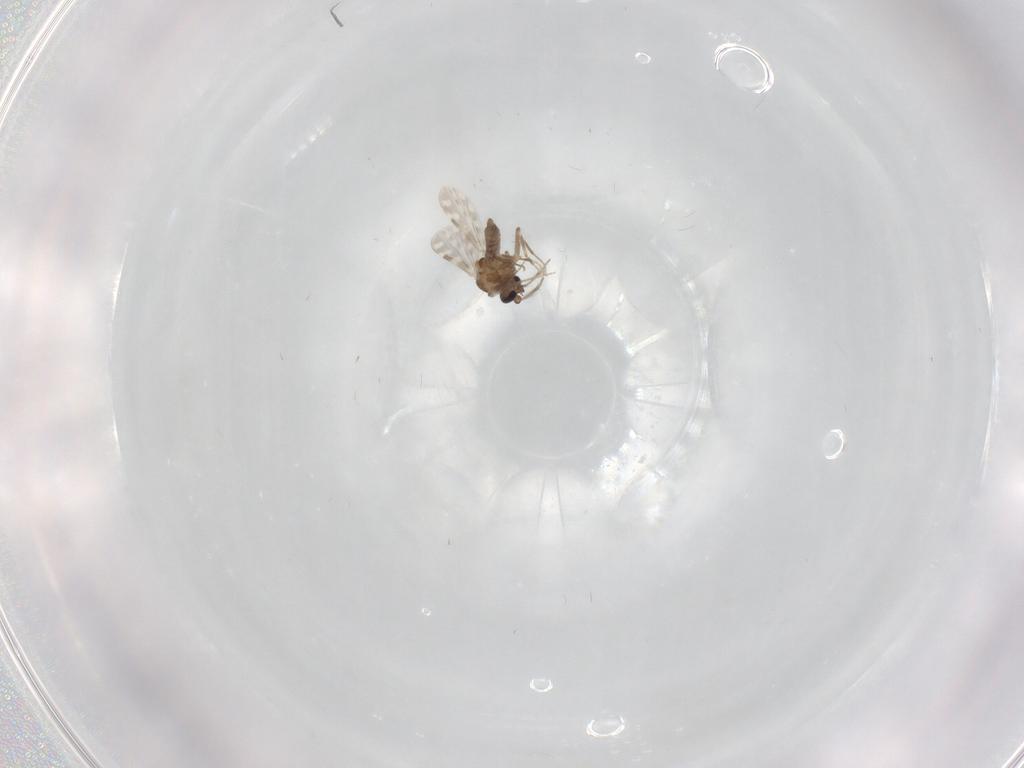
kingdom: Animalia
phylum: Arthropoda
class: Insecta
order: Diptera
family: Ceratopogonidae
